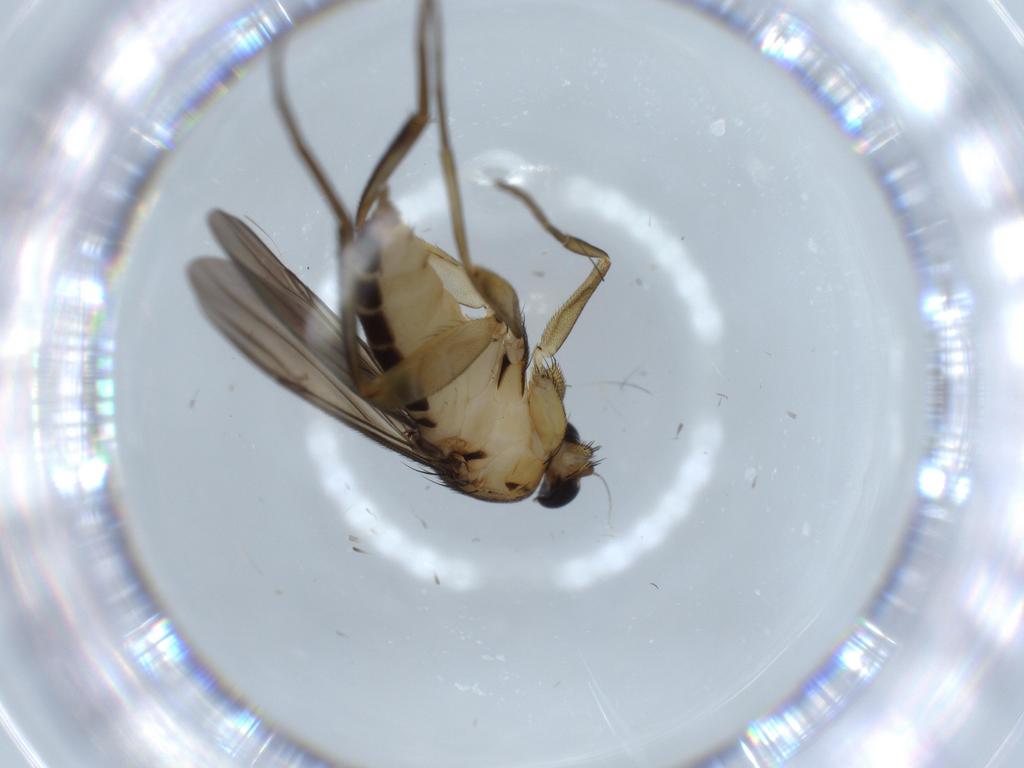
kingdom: Animalia
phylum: Arthropoda
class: Insecta
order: Diptera
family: Phoridae
